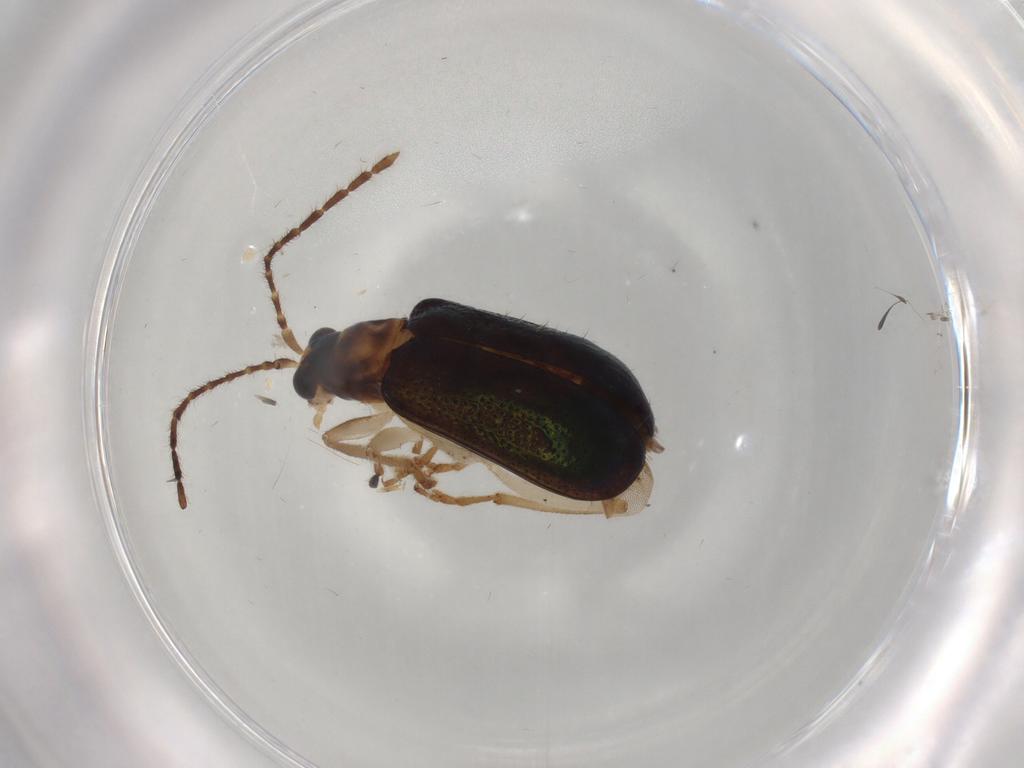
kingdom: Animalia
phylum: Arthropoda
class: Insecta
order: Coleoptera
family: Chrysomelidae
